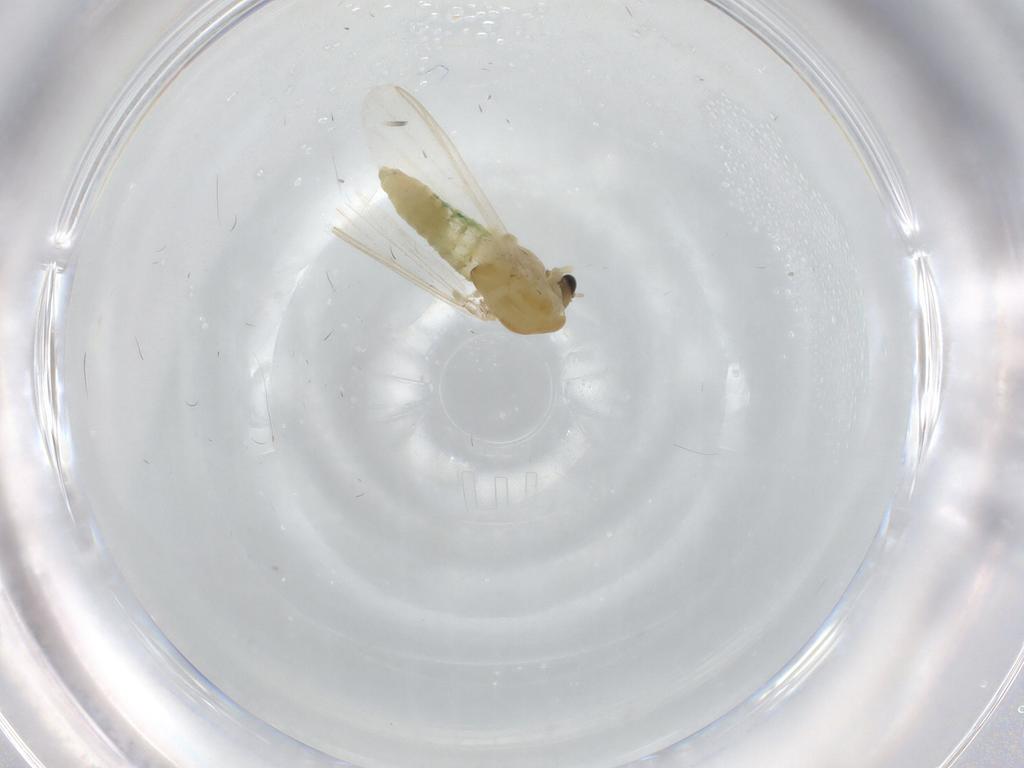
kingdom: Animalia
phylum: Arthropoda
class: Insecta
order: Diptera
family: Chironomidae
